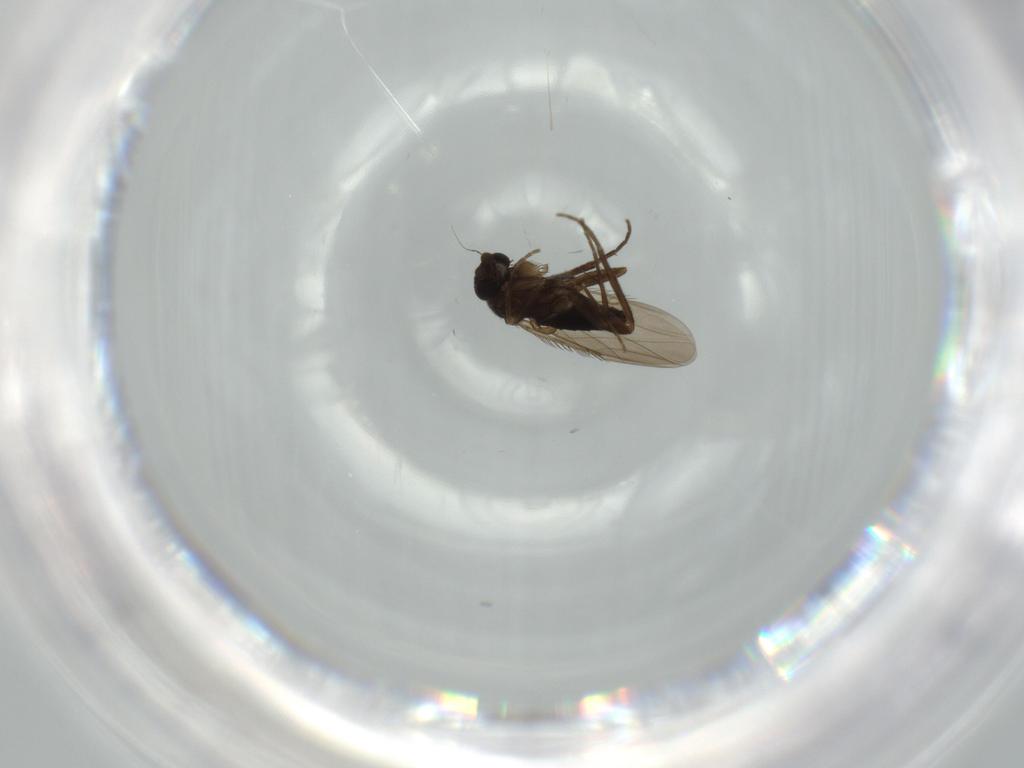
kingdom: Animalia
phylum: Arthropoda
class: Insecta
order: Diptera
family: Phoridae
